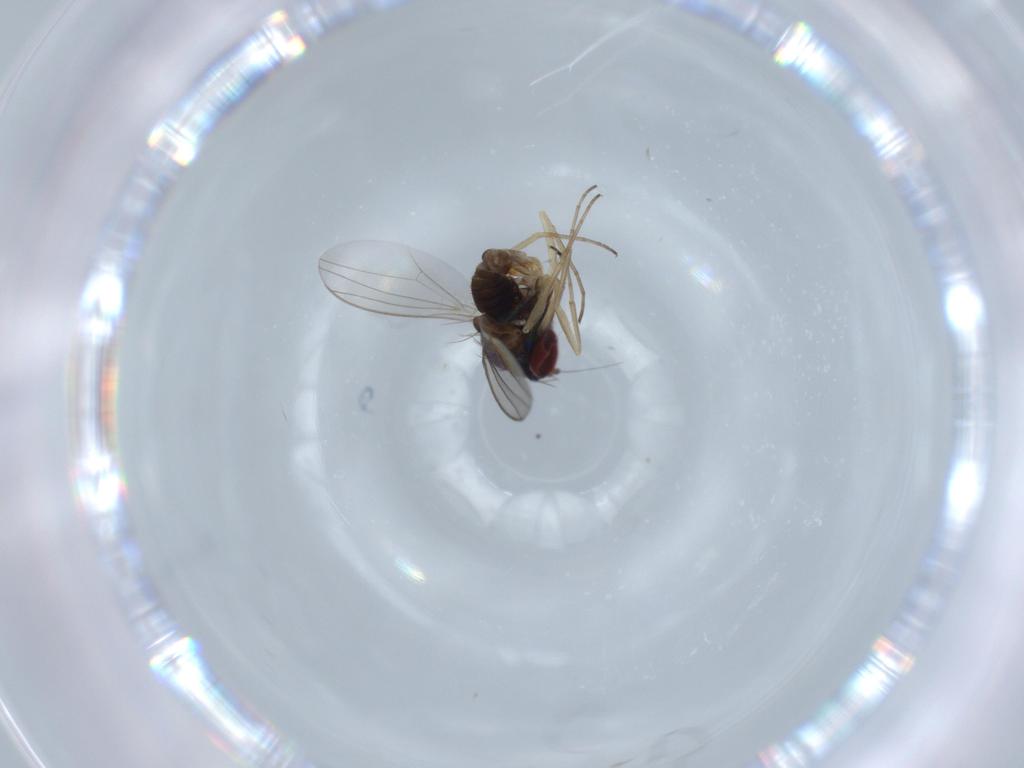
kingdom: Animalia
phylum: Arthropoda
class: Insecta
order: Diptera
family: Dolichopodidae
